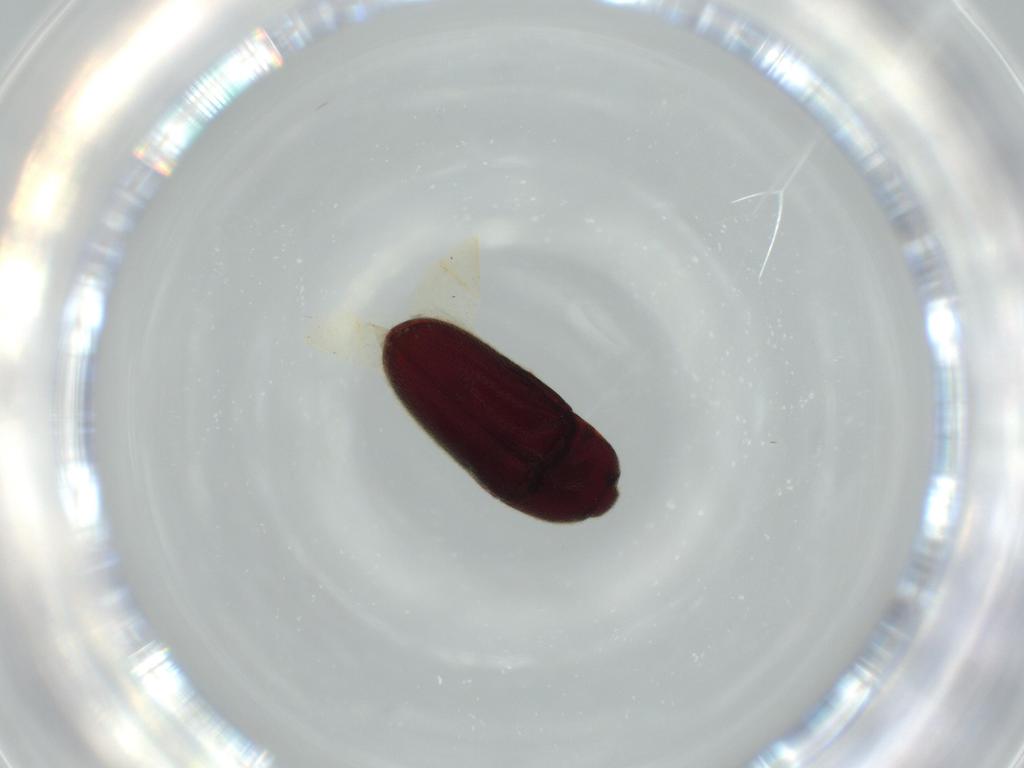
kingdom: Animalia
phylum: Arthropoda
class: Insecta
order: Coleoptera
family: Throscidae
